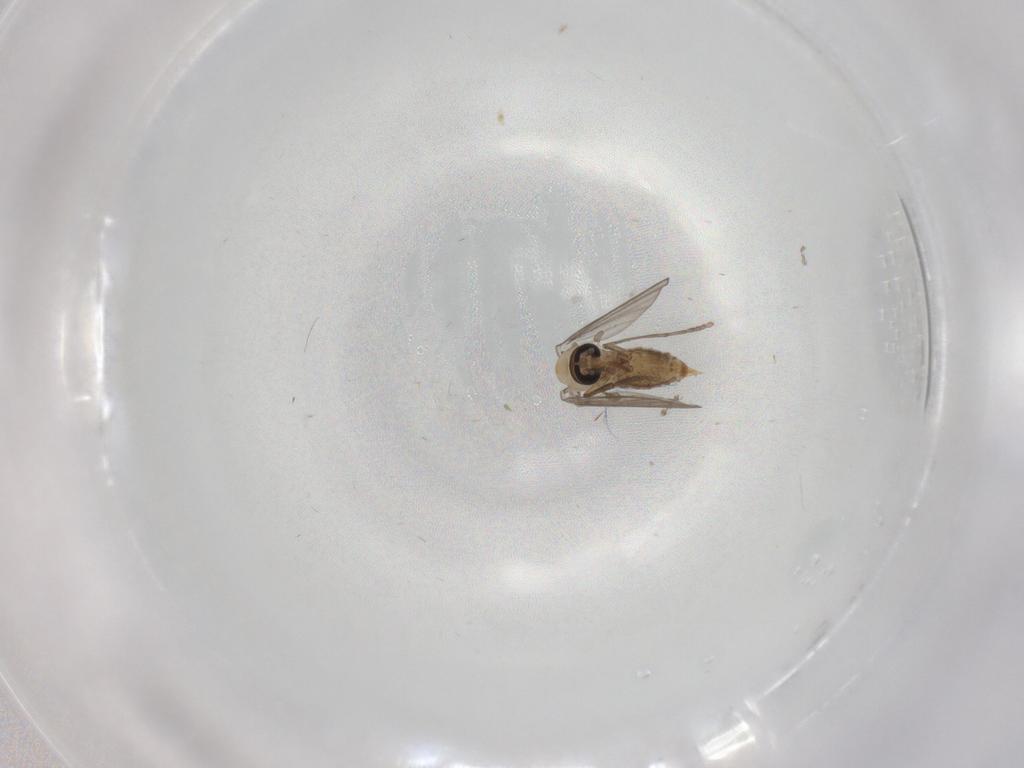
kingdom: Animalia
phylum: Arthropoda
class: Insecta
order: Diptera
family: Psychodidae
